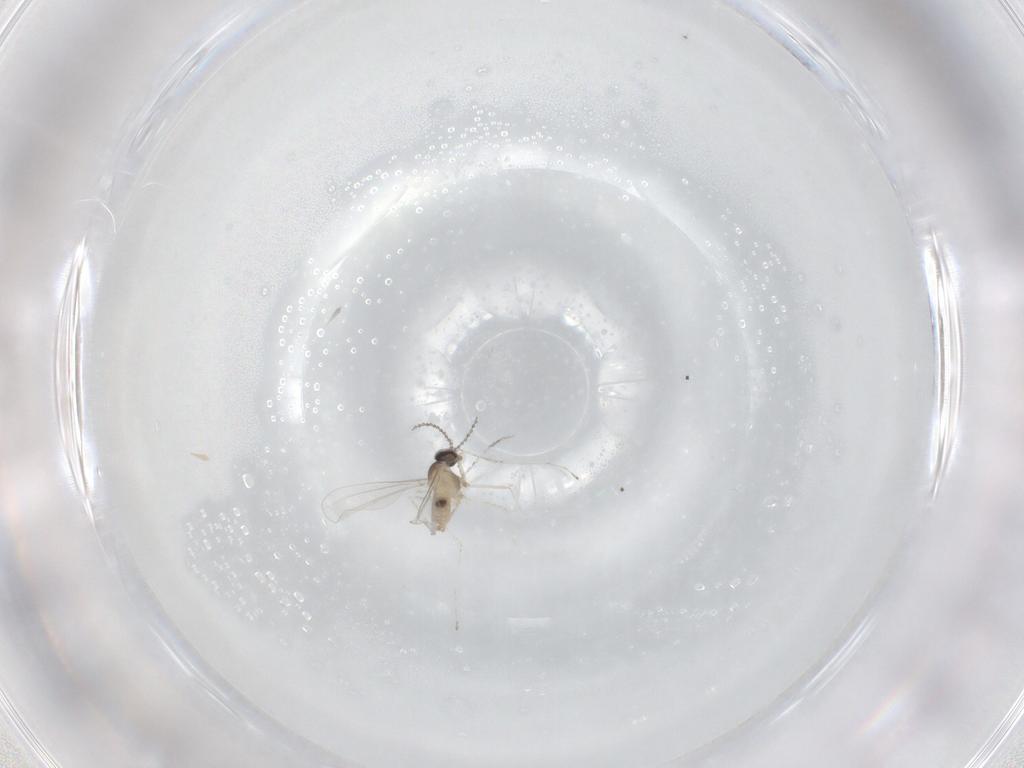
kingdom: Animalia
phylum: Arthropoda
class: Insecta
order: Diptera
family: Cecidomyiidae
